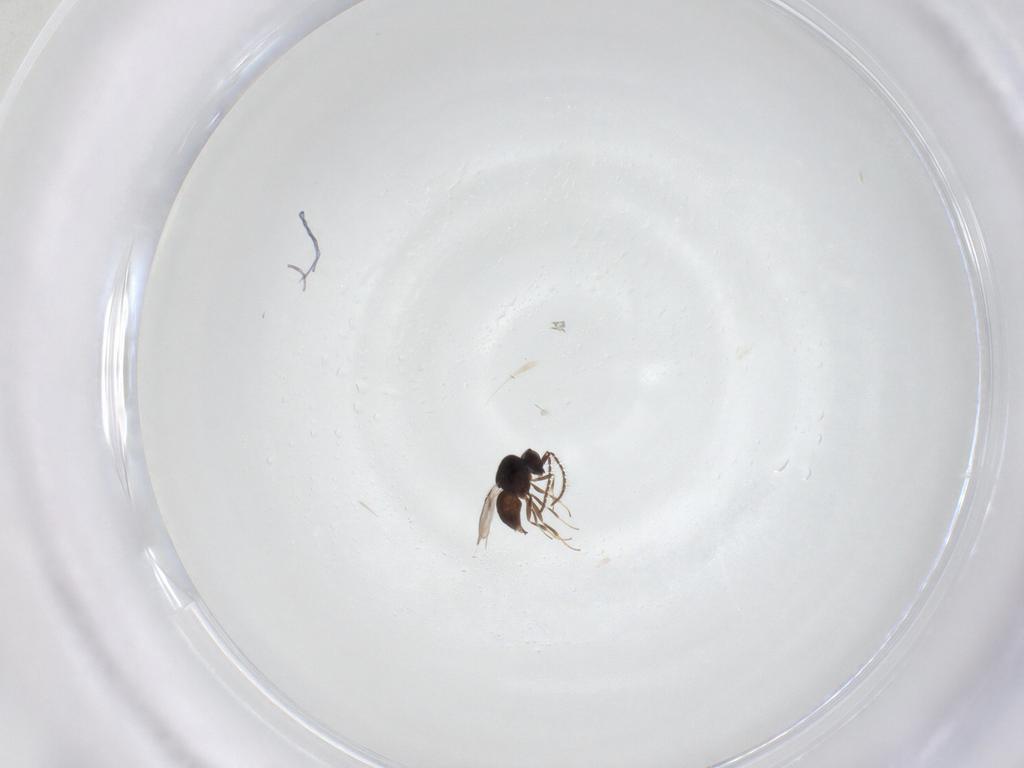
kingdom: Animalia
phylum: Arthropoda
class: Insecta
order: Hymenoptera
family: Ceraphronidae
